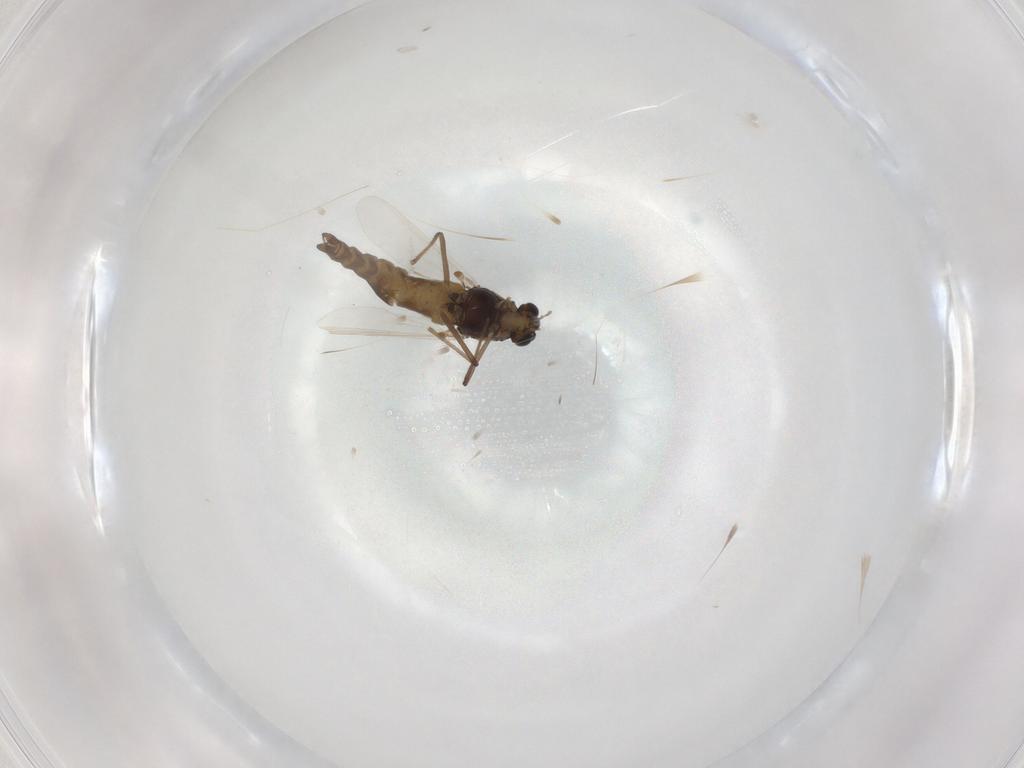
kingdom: Animalia
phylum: Arthropoda
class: Insecta
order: Diptera
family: Chironomidae
